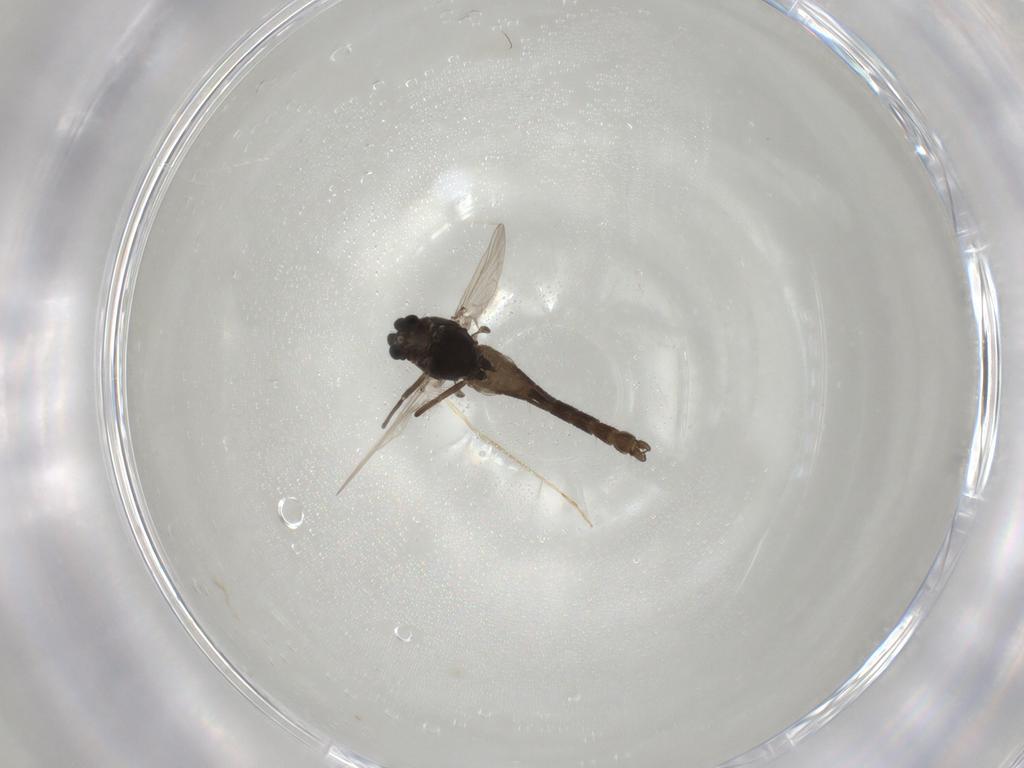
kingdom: Animalia
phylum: Arthropoda
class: Insecta
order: Diptera
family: Chironomidae
